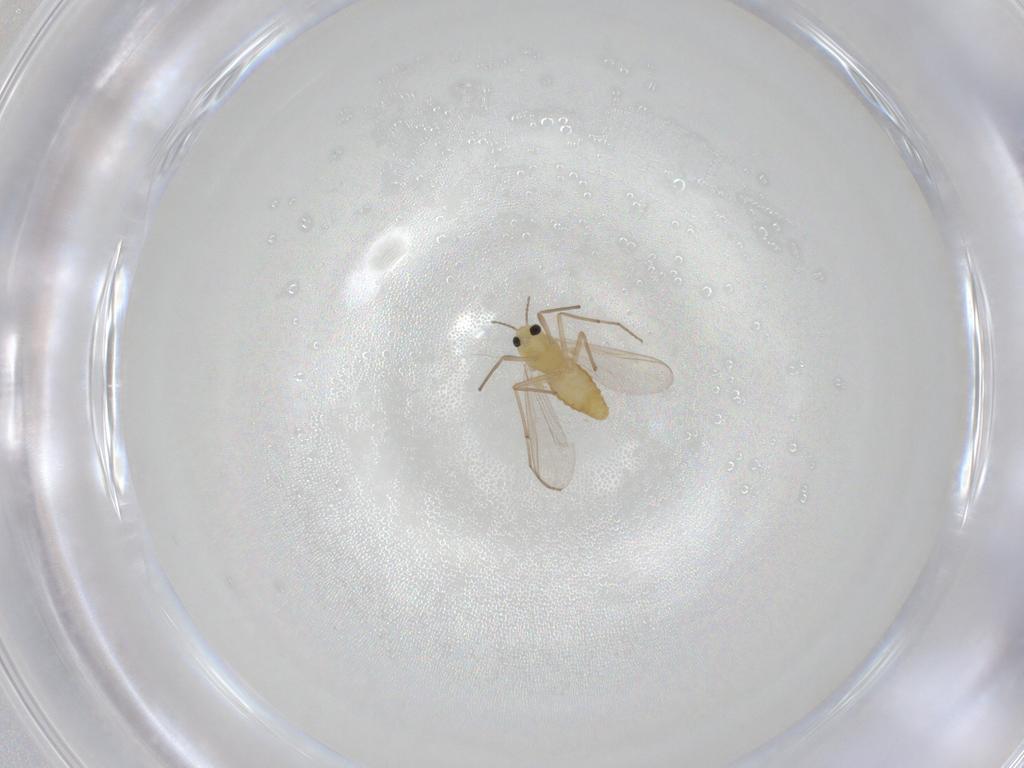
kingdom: Animalia
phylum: Arthropoda
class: Insecta
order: Diptera
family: Chironomidae
